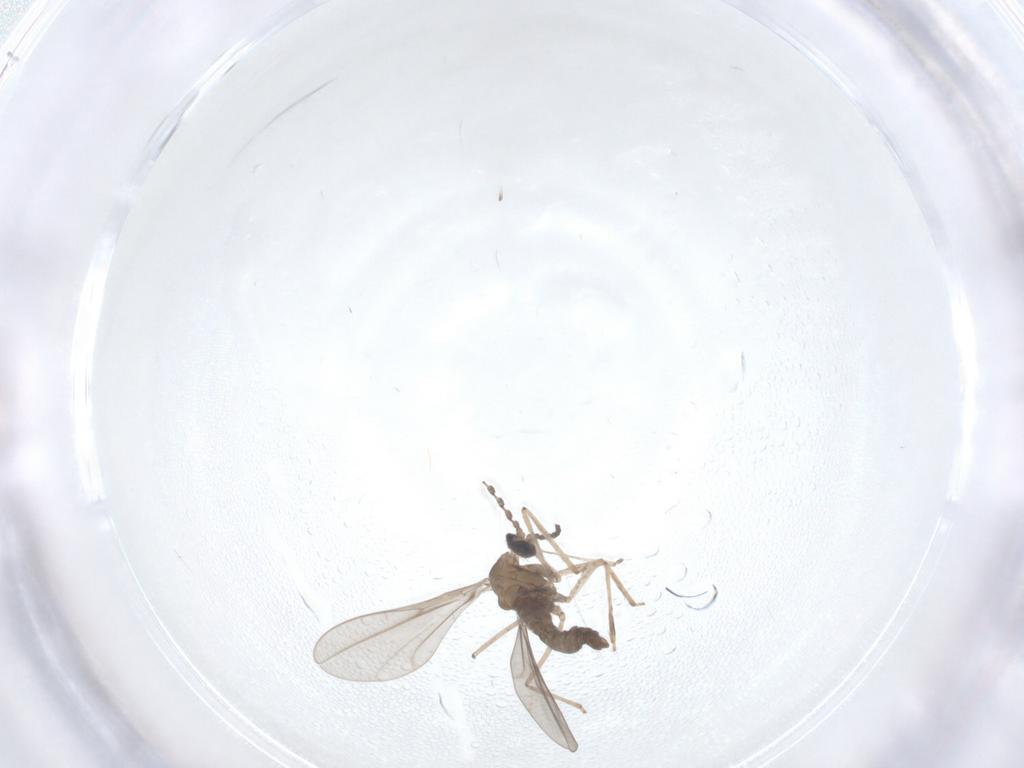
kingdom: Animalia
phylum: Arthropoda
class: Insecta
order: Diptera
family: Cecidomyiidae
